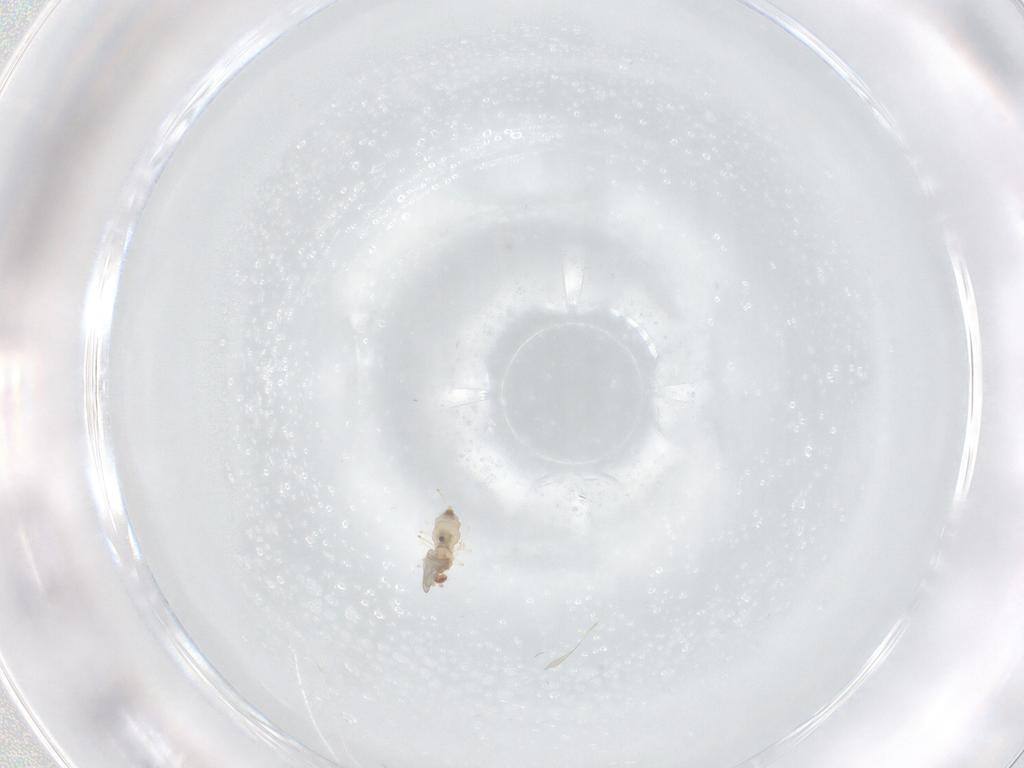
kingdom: Animalia
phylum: Arthropoda
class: Insecta
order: Diptera
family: Cecidomyiidae
